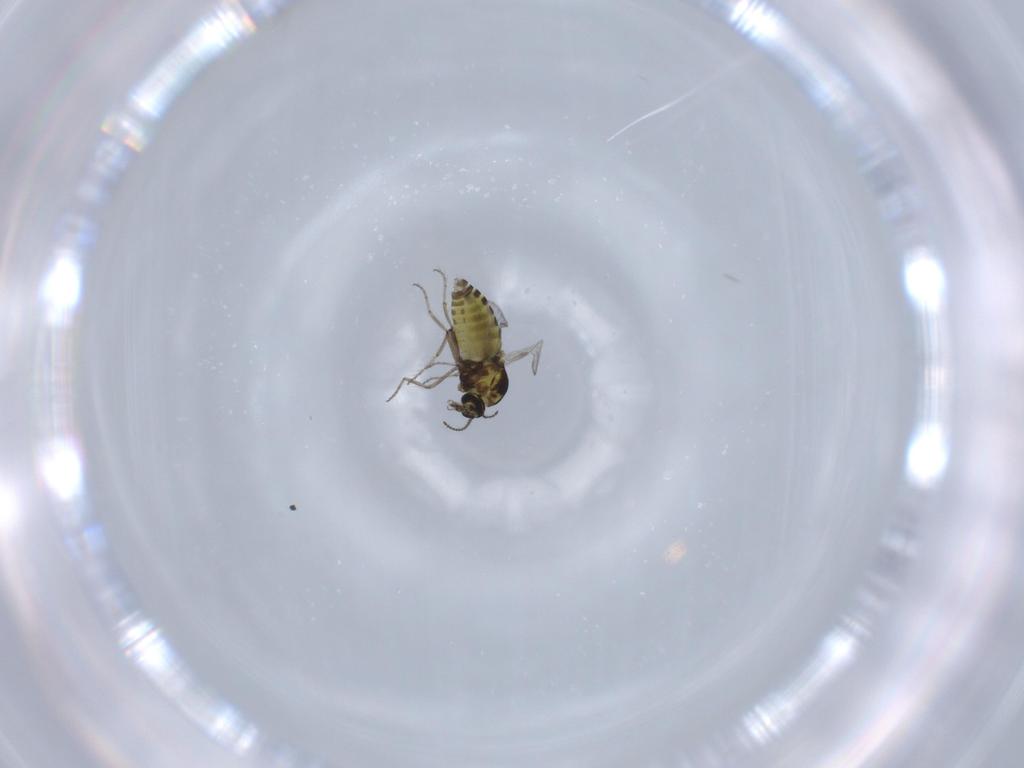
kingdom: Animalia
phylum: Arthropoda
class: Insecta
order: Diptera
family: Ceratopogonidae
